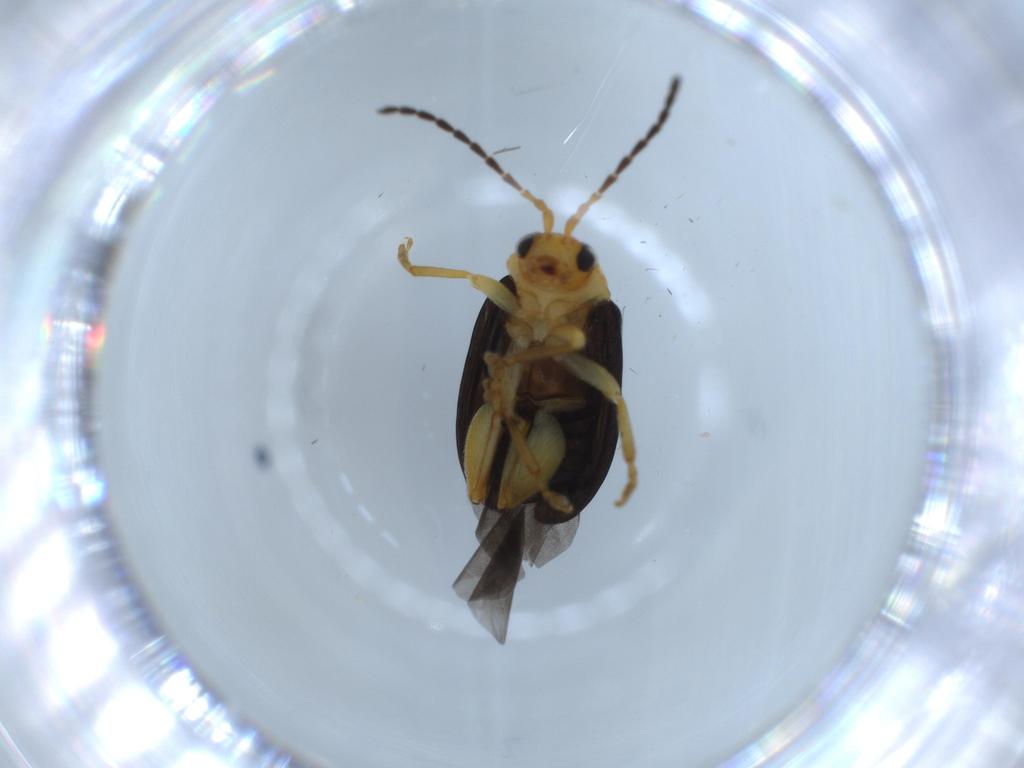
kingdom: Animalia
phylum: Arthropoda
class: Insecta
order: Coleoptera
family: Chrysomelidae
